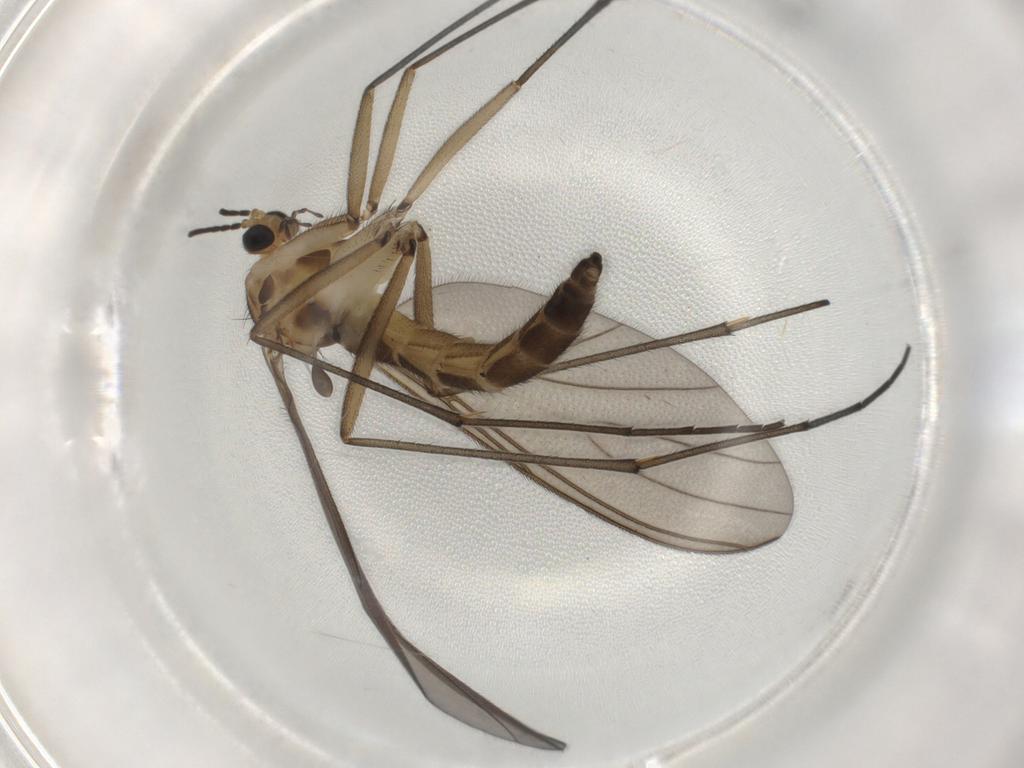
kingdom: Animalia
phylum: Arthropoda
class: Insecta
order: Diptera
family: Sciaridae
